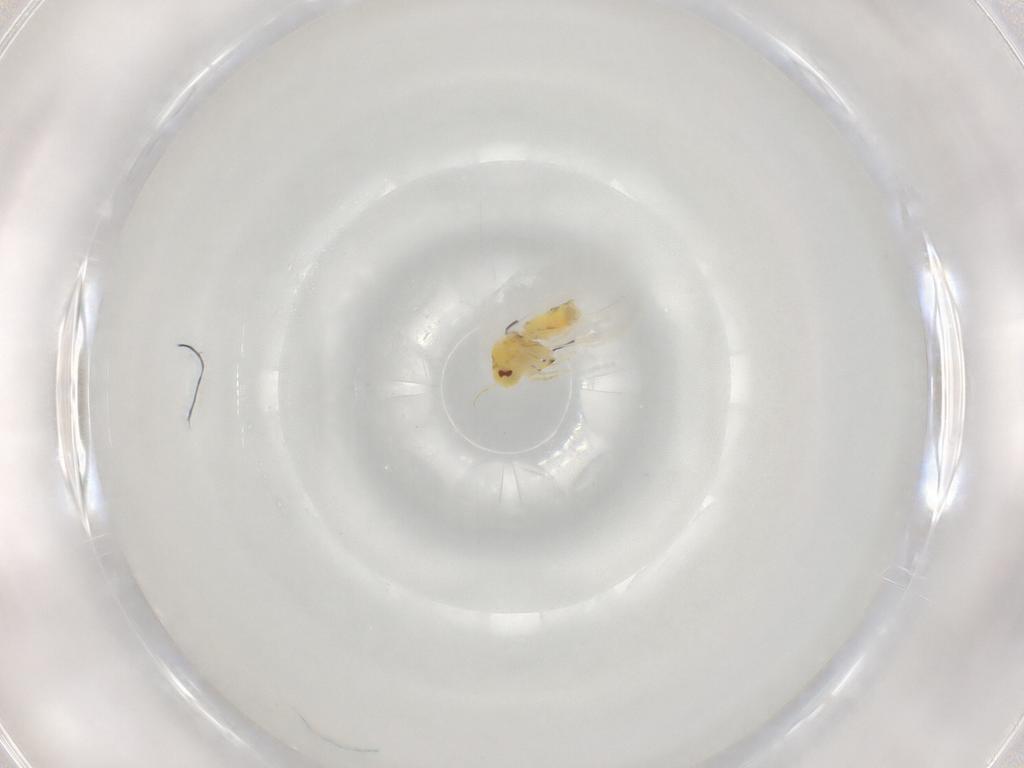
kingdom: Animalia
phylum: Arthropoda
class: Insecta
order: Hemiptera
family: Aleyrodidae
